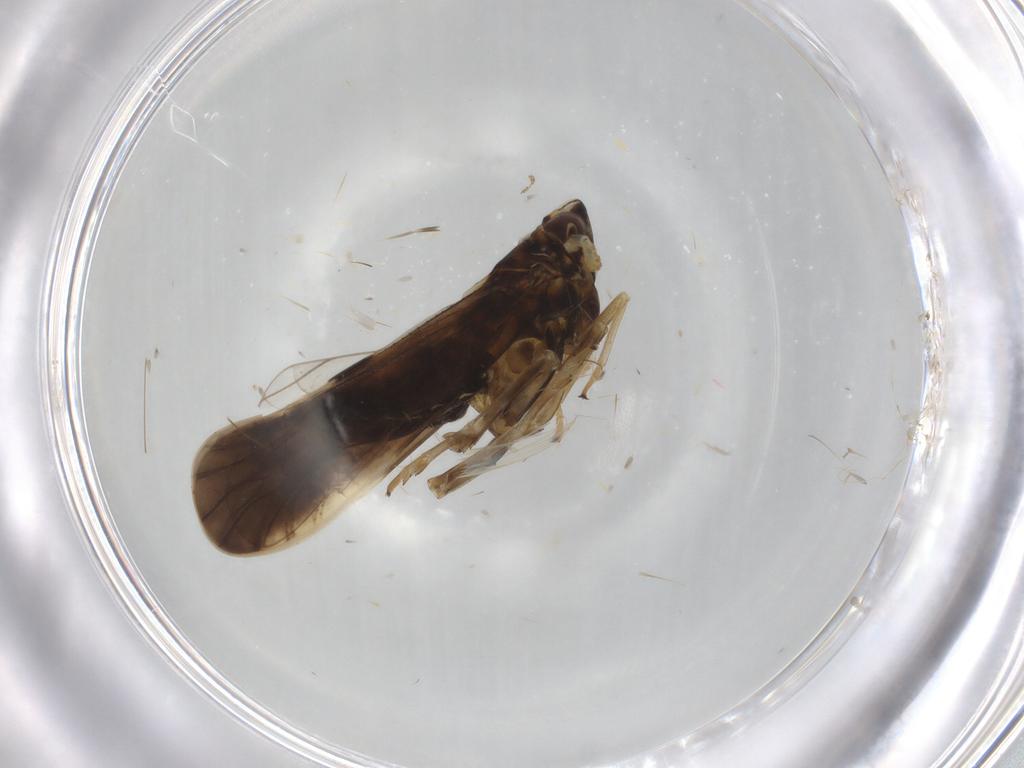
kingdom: Animalia
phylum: Arthropoda
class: Insecta
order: Hemiptera
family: Delphacidae
